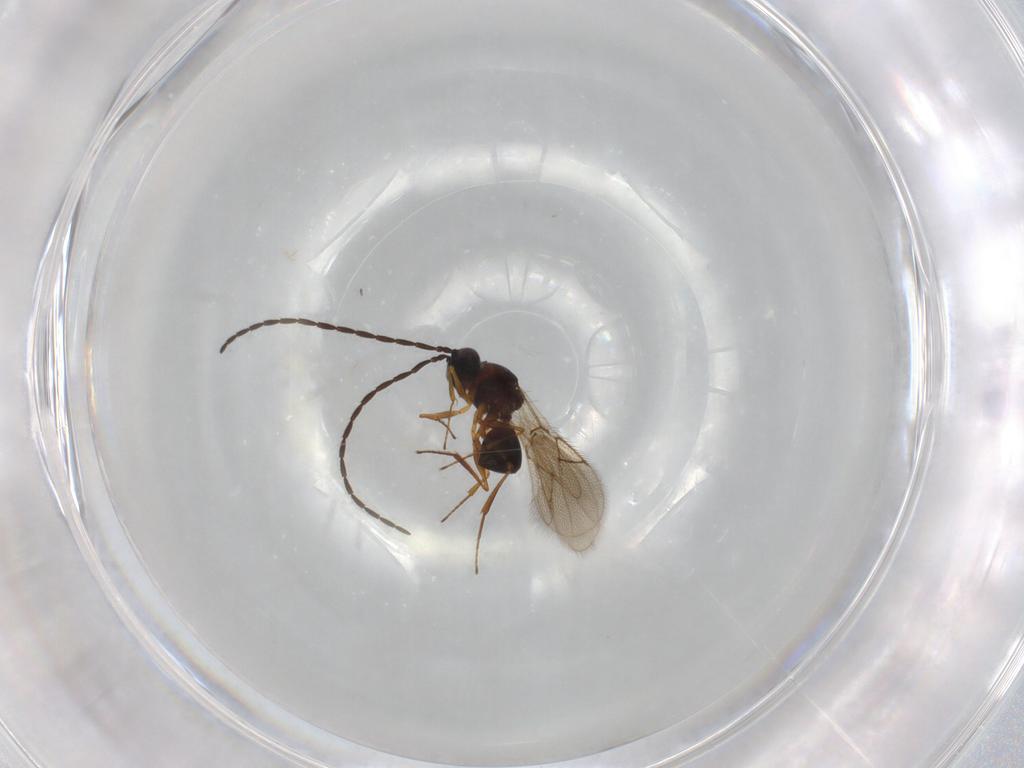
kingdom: Animalia
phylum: Arthropoda
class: Insecta
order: Hymenoptera
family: Figitidae
